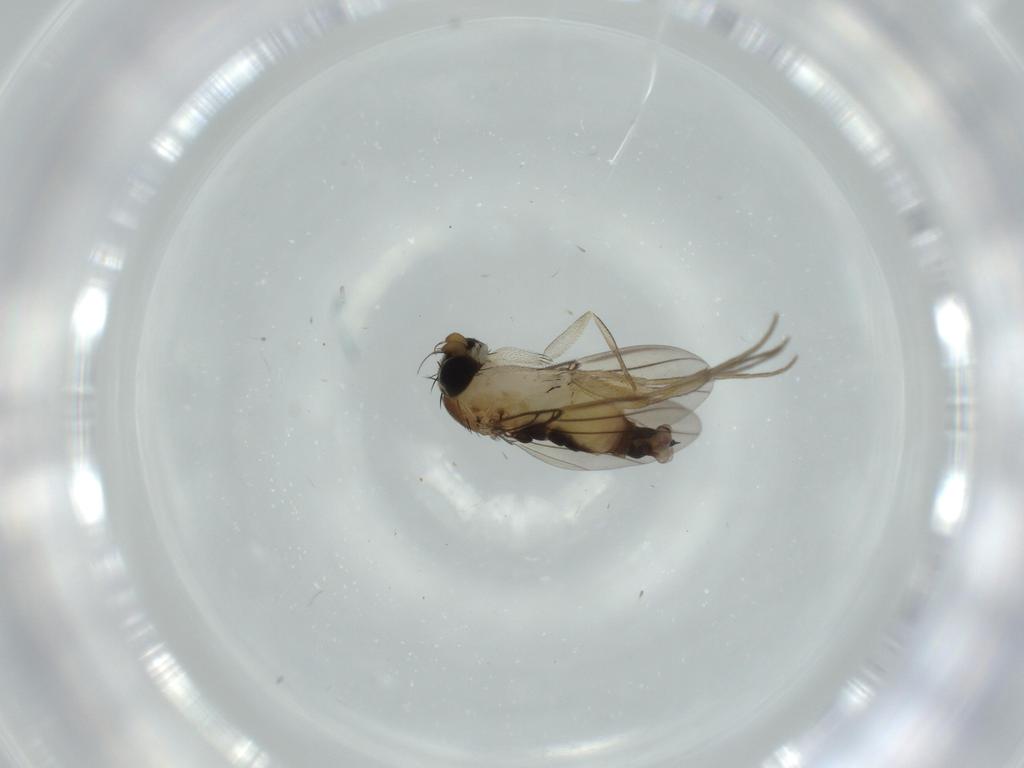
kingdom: Animalia
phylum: Arthropoda
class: Insecta
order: Diptera
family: Phoridae
